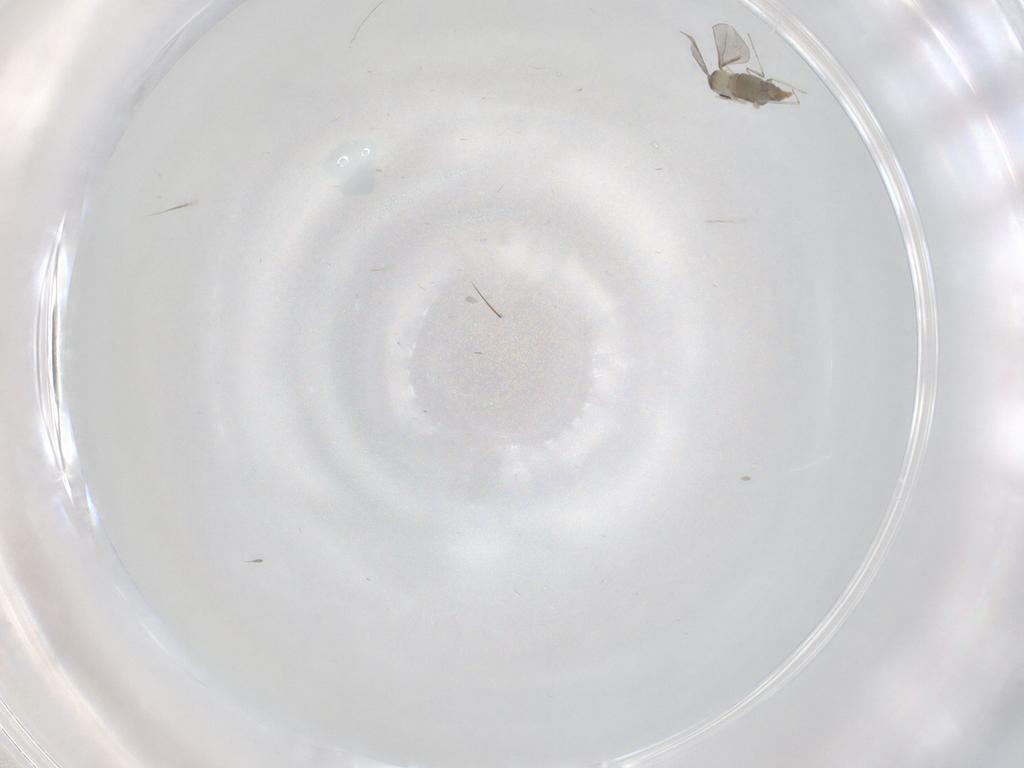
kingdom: Animalia
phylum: Arthropoda
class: Insecta
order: Diptera
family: Cecidomyiidae
